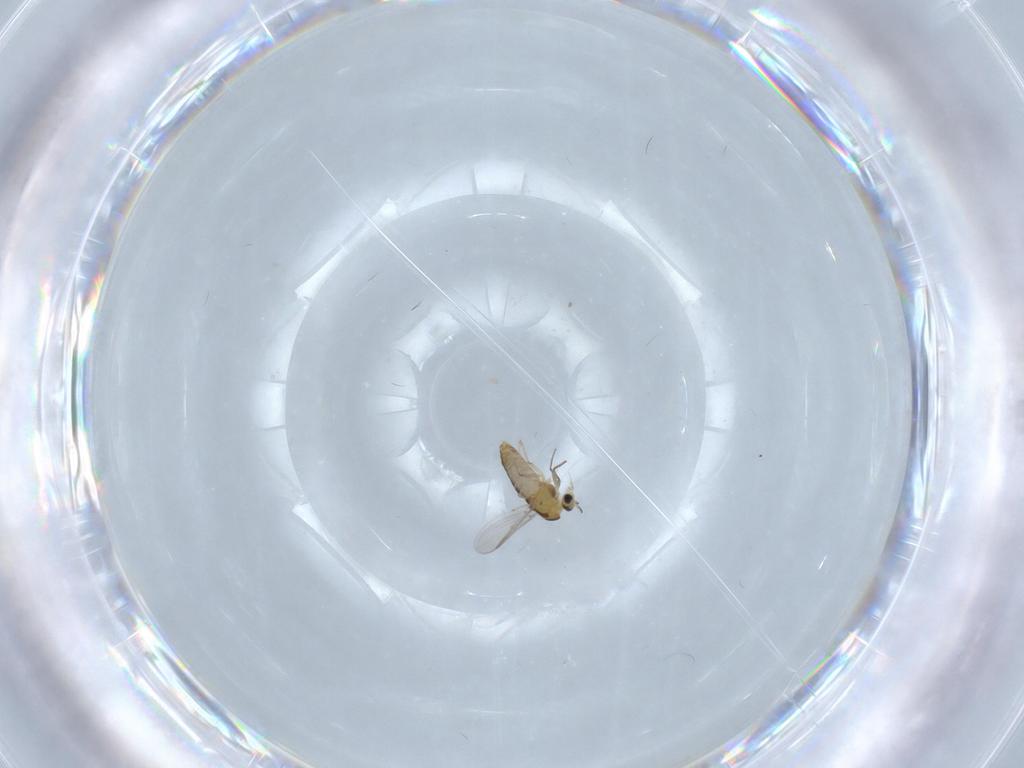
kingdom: Animalia
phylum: Arthropoda
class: Insecta
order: Diptera
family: Chironomidae
